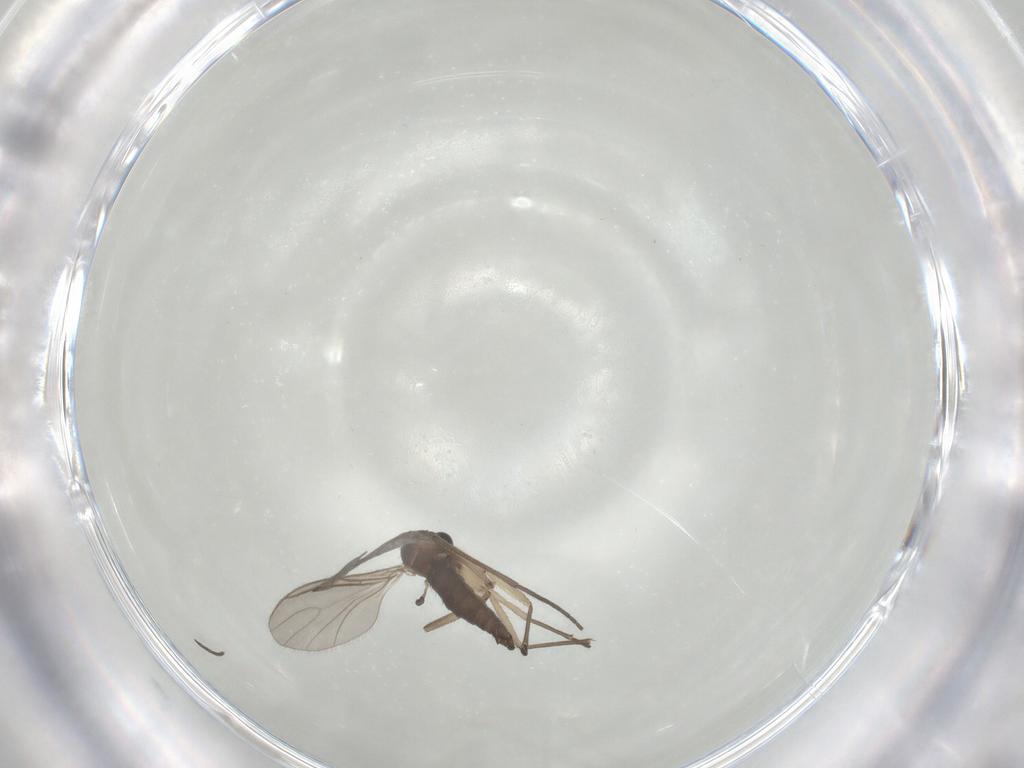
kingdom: Animalia
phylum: Arthropoda
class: Insecta
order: Diptera
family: Sciaridae
